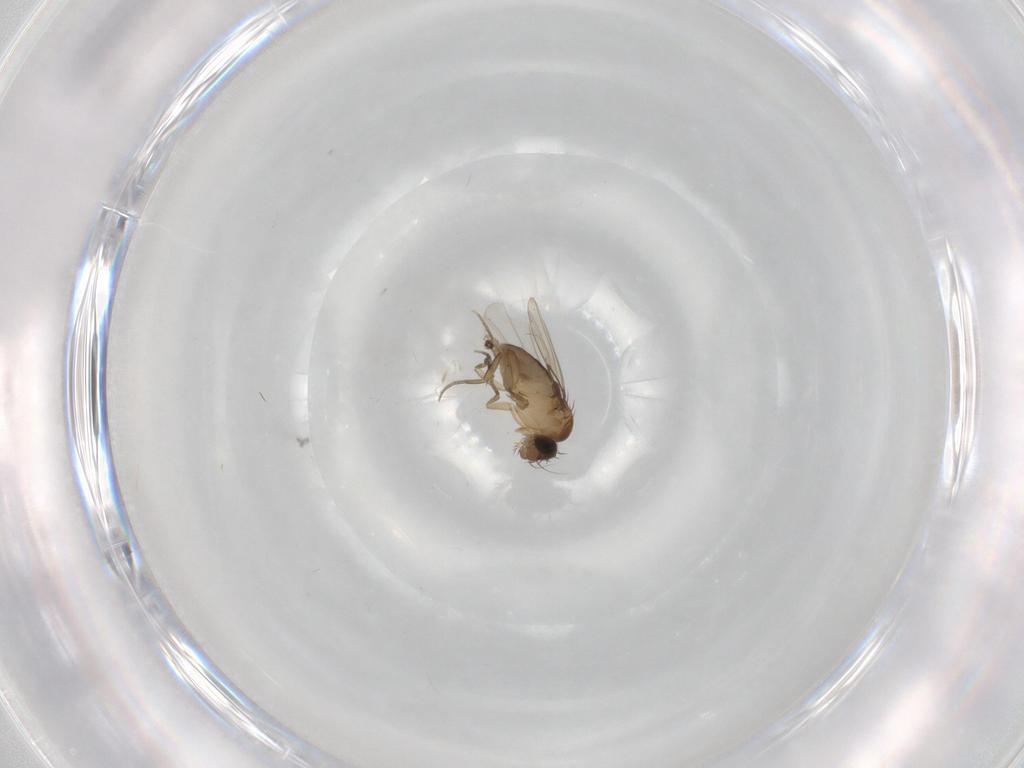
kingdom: Animalia
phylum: Arthropoda
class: Insecta
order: Diptera
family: Phoridae
